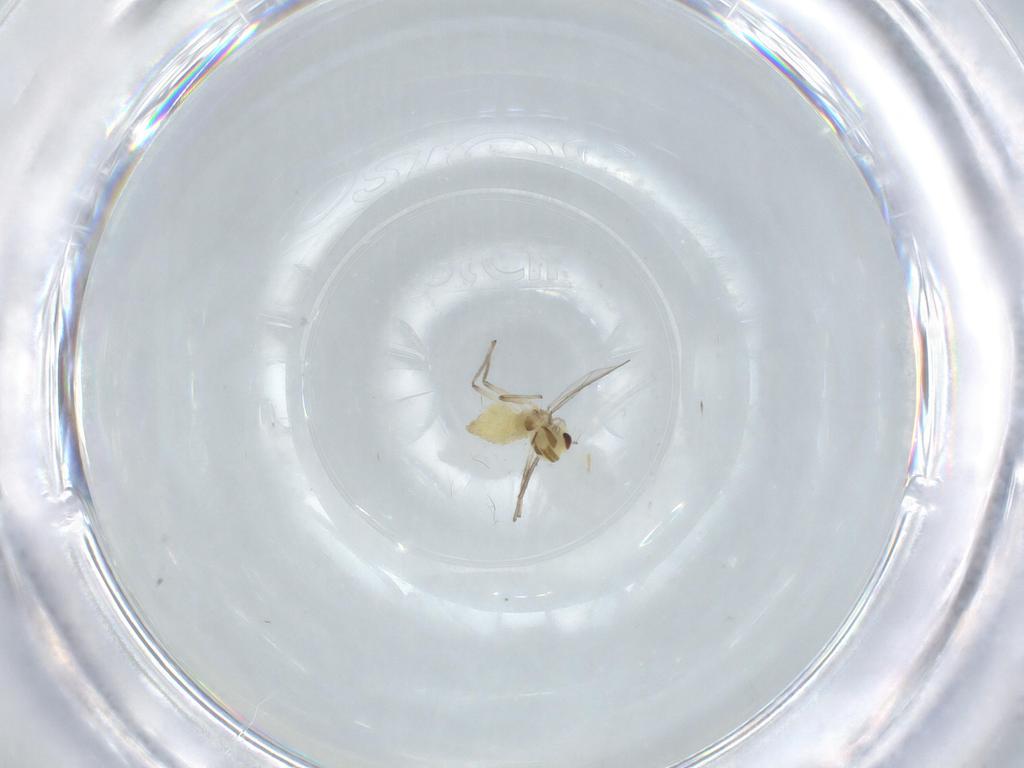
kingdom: Animalia
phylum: Arthropoda
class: Insecta
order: Diptera
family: Chironomidae
